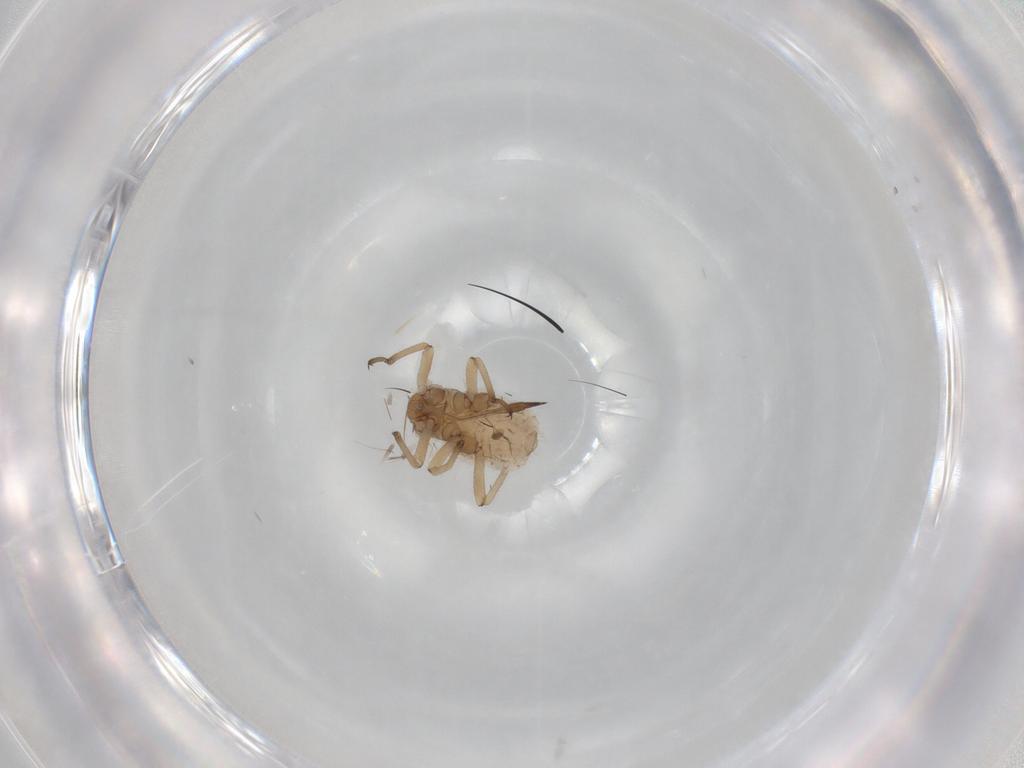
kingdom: Animalia
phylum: Arthropoda
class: Insecta
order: Hemiptera
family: Aphididae
